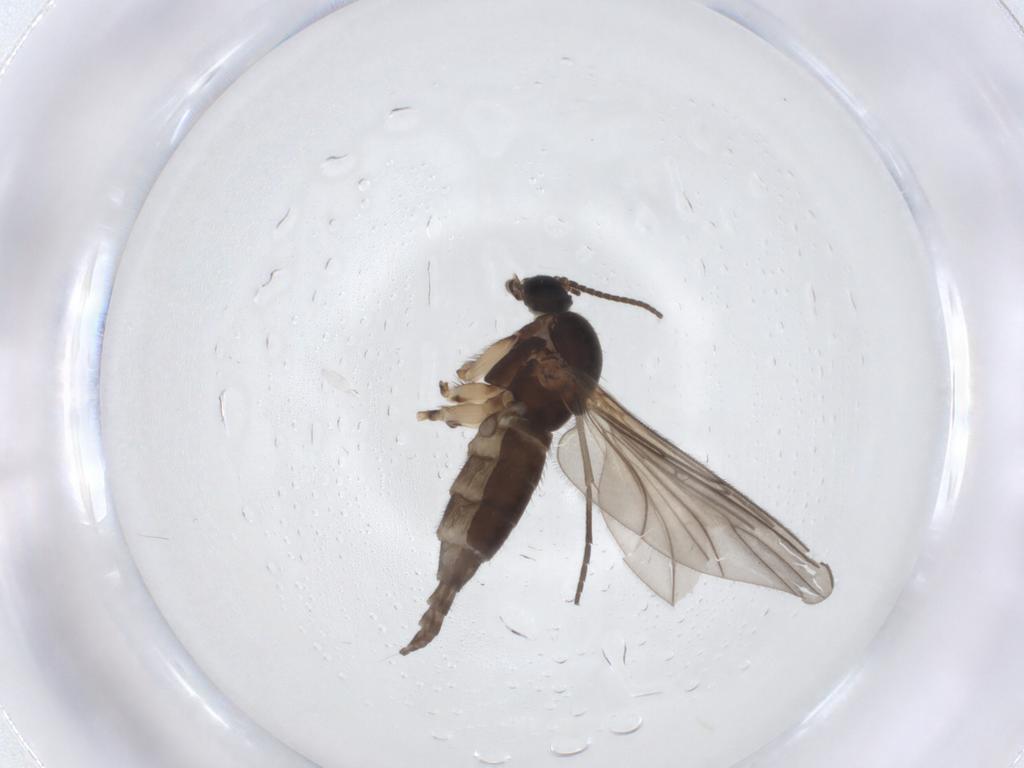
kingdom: Animalia
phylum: Arthropoda
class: Insecta
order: Diptera
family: Sciaridae
